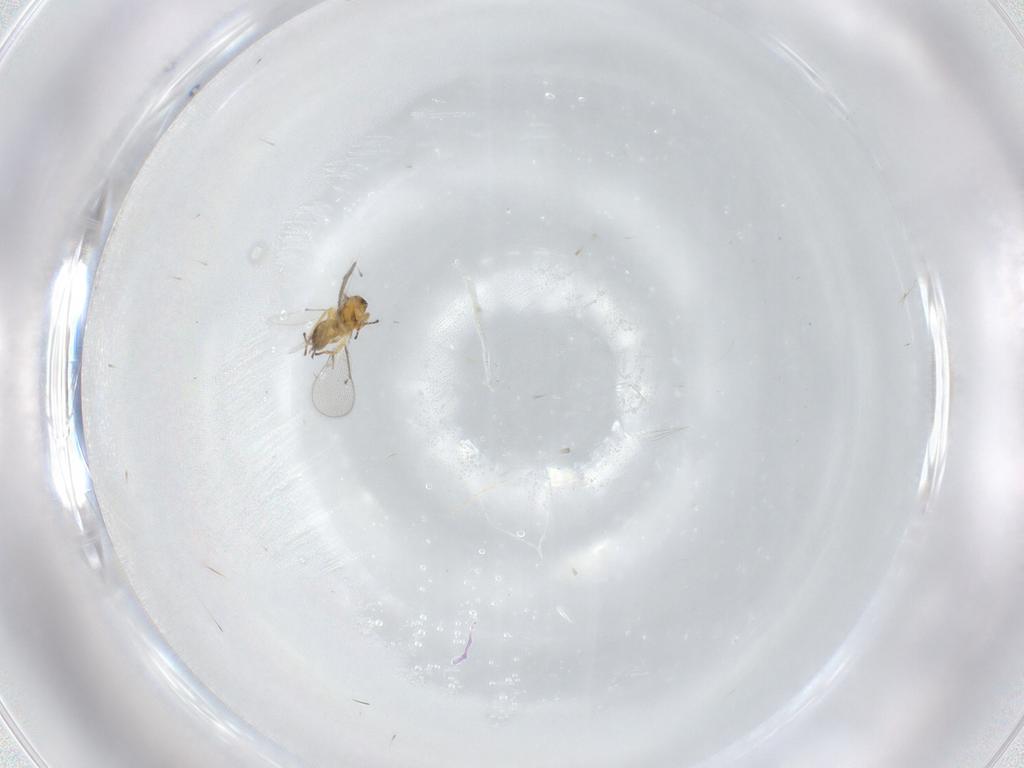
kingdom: Animalia
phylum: Arthropoda
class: Insecta
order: Hymenoptera
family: Eulophidae
